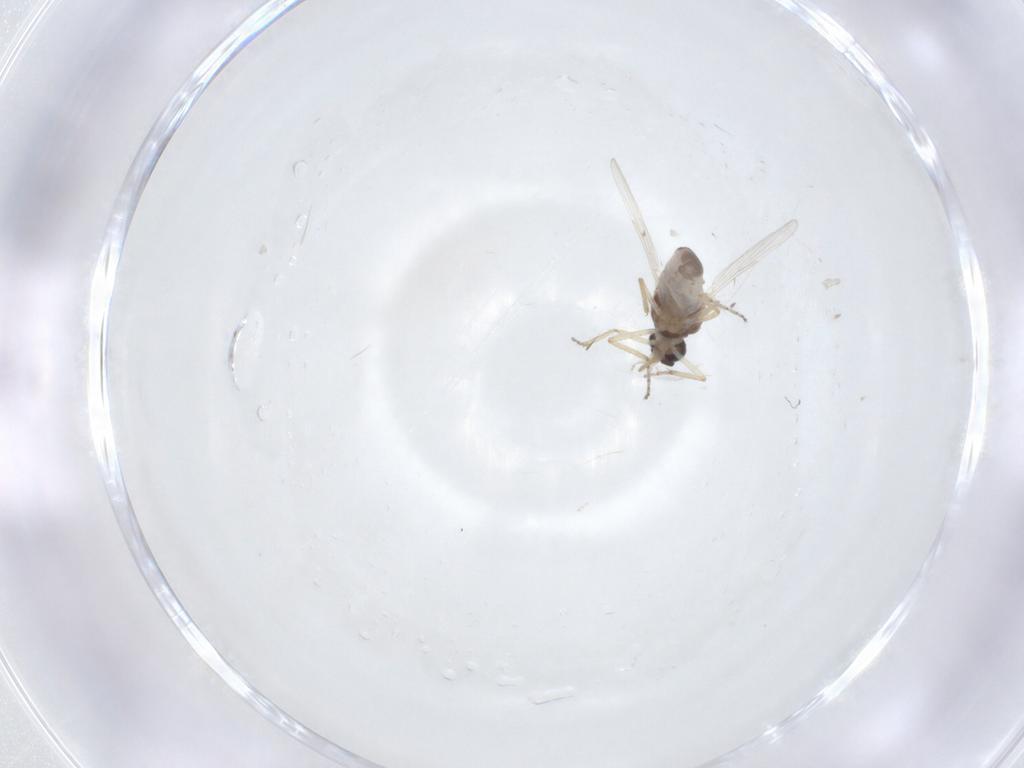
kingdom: Animalia
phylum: Arthropoda
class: Insecta
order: Diptera
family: Ceratopogonidae
